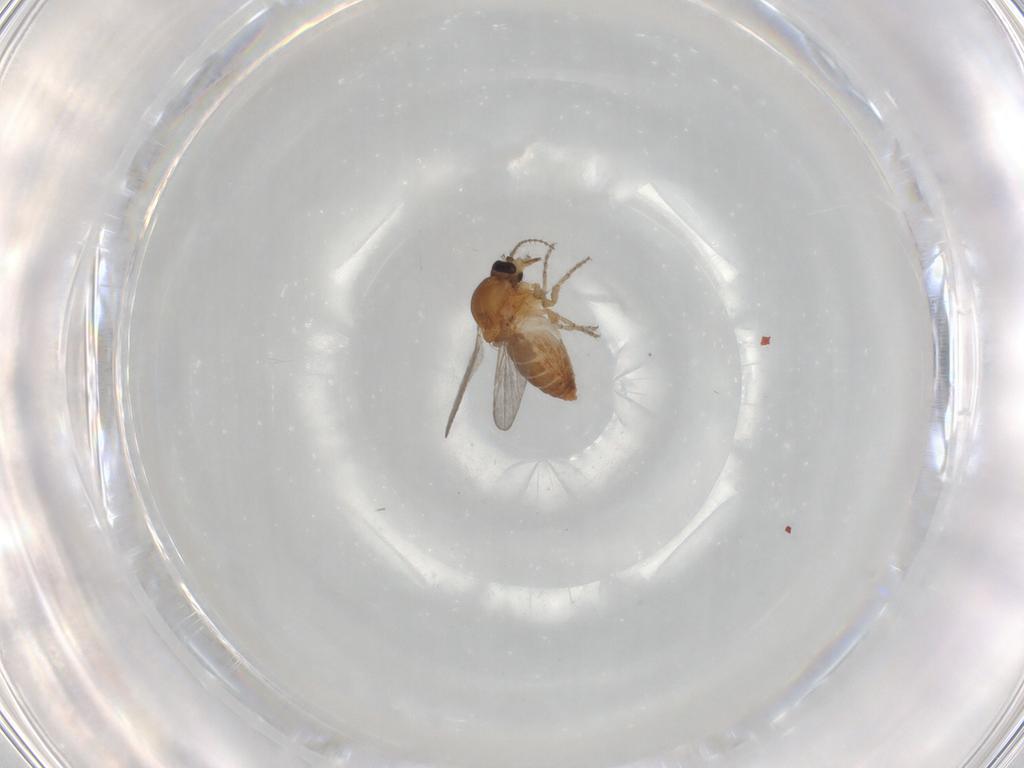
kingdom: Animalia
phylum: Arthropoda
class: Insecta
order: Diptera
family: Ceratopogonidae
